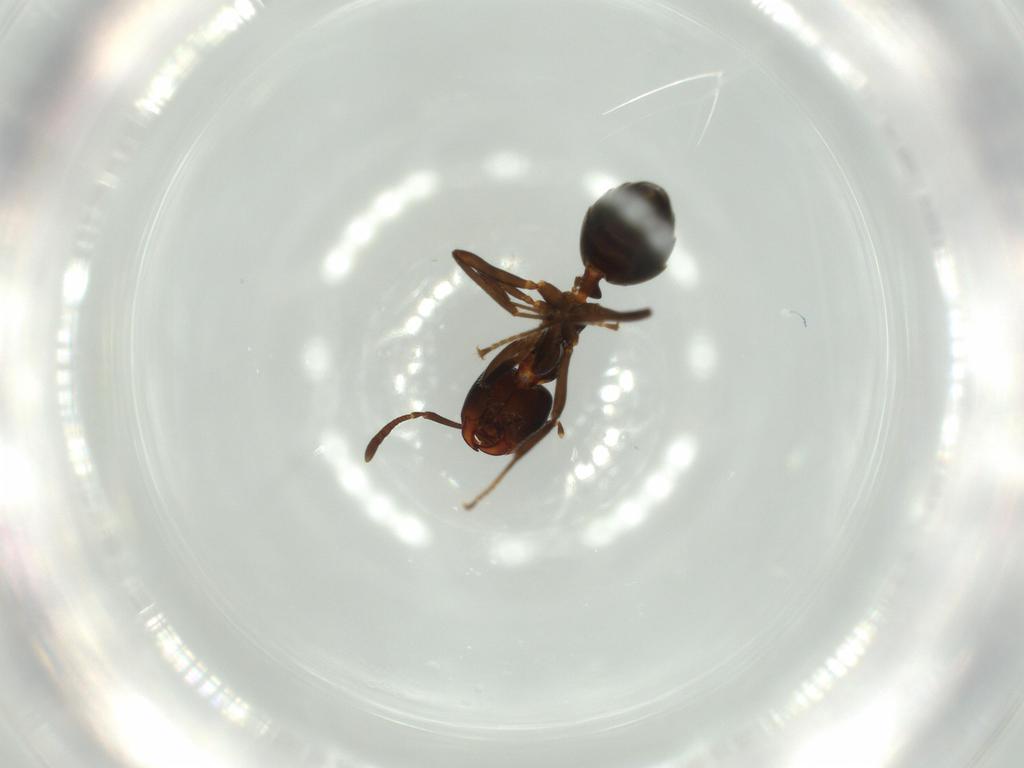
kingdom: Animalia
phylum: Arthropoda
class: Insecta
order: Hymenoptera
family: Formicidae
